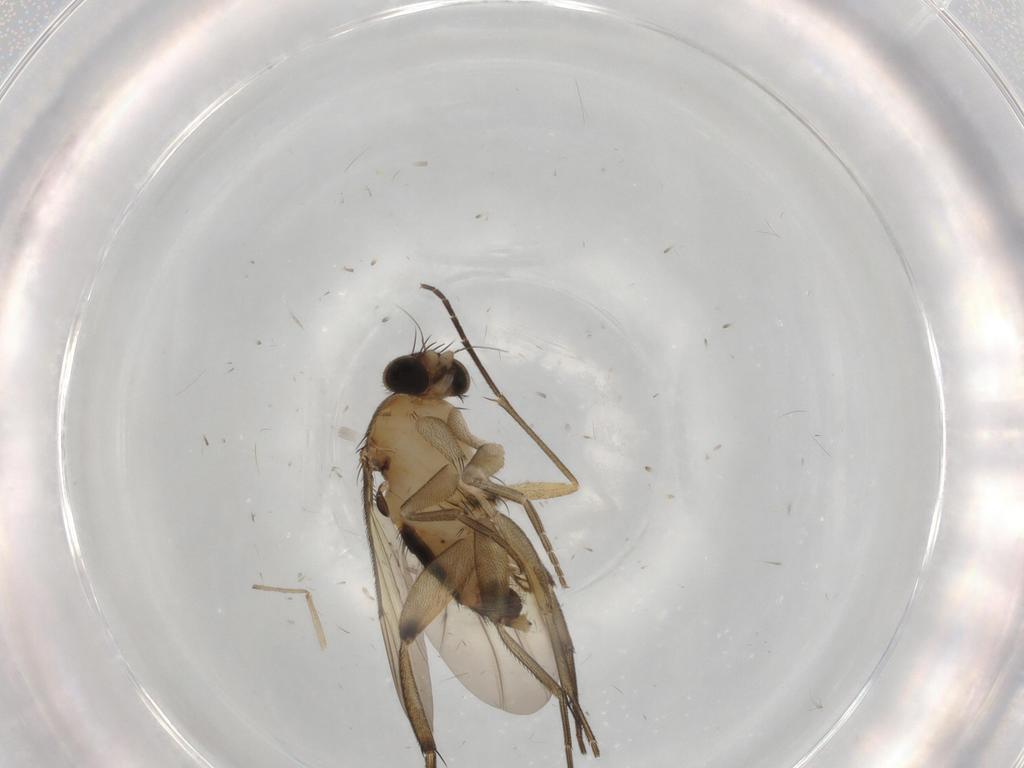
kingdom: Animalia
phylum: Arthropoda
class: Insecta
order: Diptera
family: Cecidomyiidae
